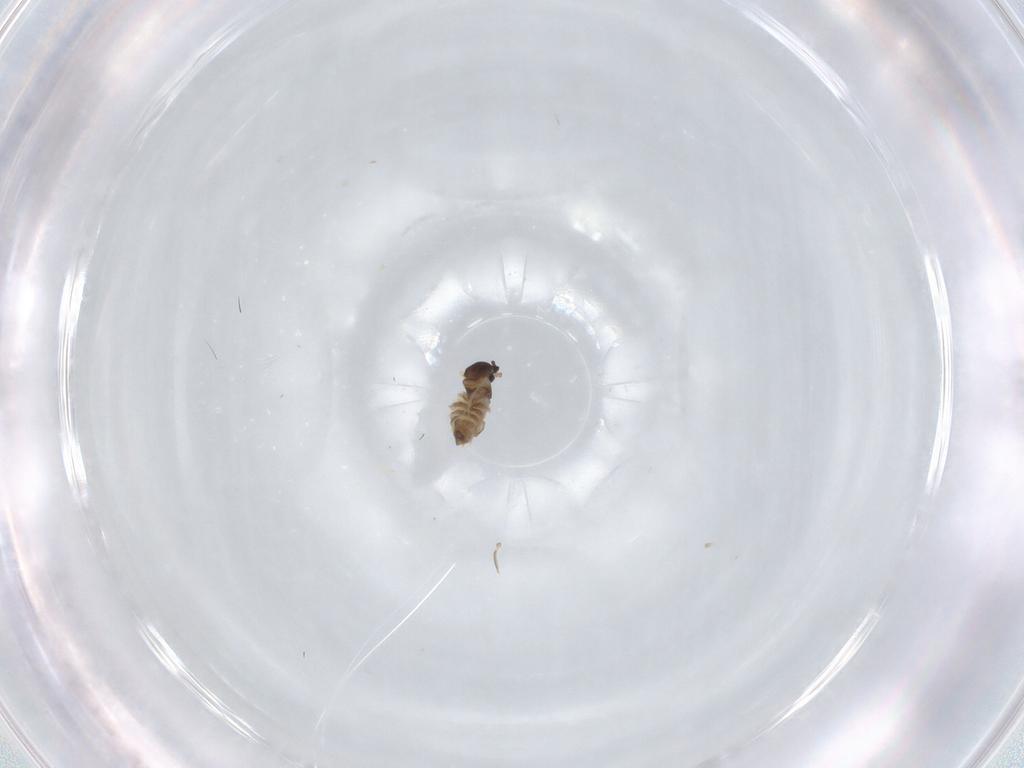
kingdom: Animalia
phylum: Arthropoda
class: Insecta
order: Diptera
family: Cecidomyiidae
